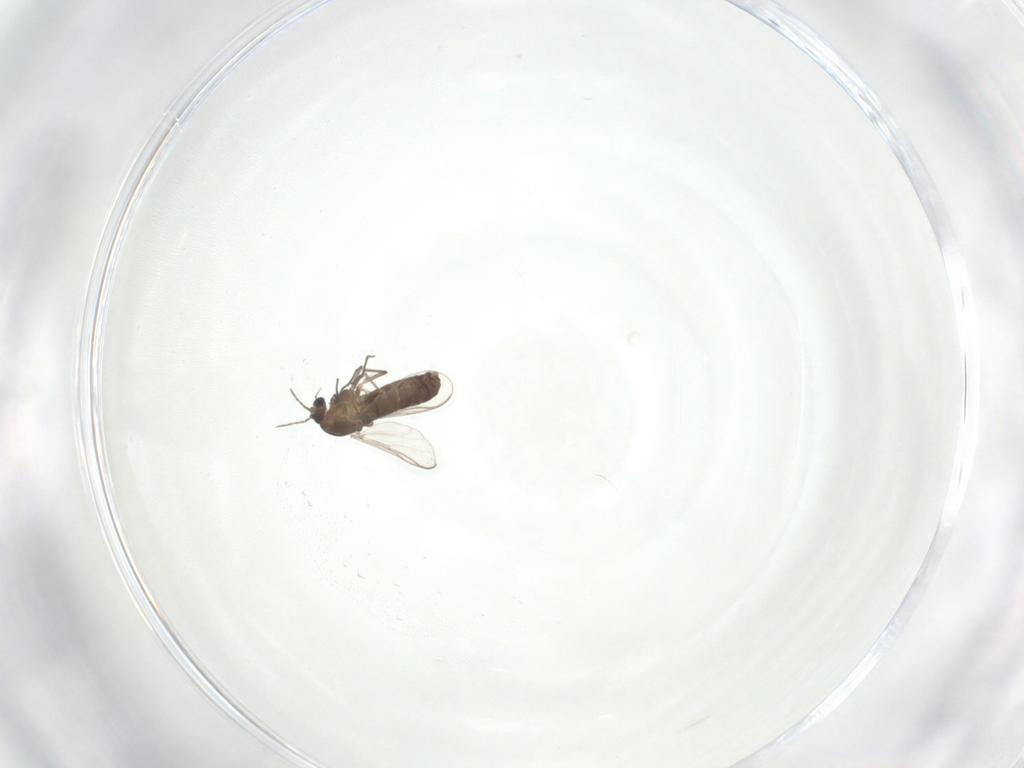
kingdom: Animalia
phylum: Arthropoda
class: Insecta
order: Diptera
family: Chironomidae
